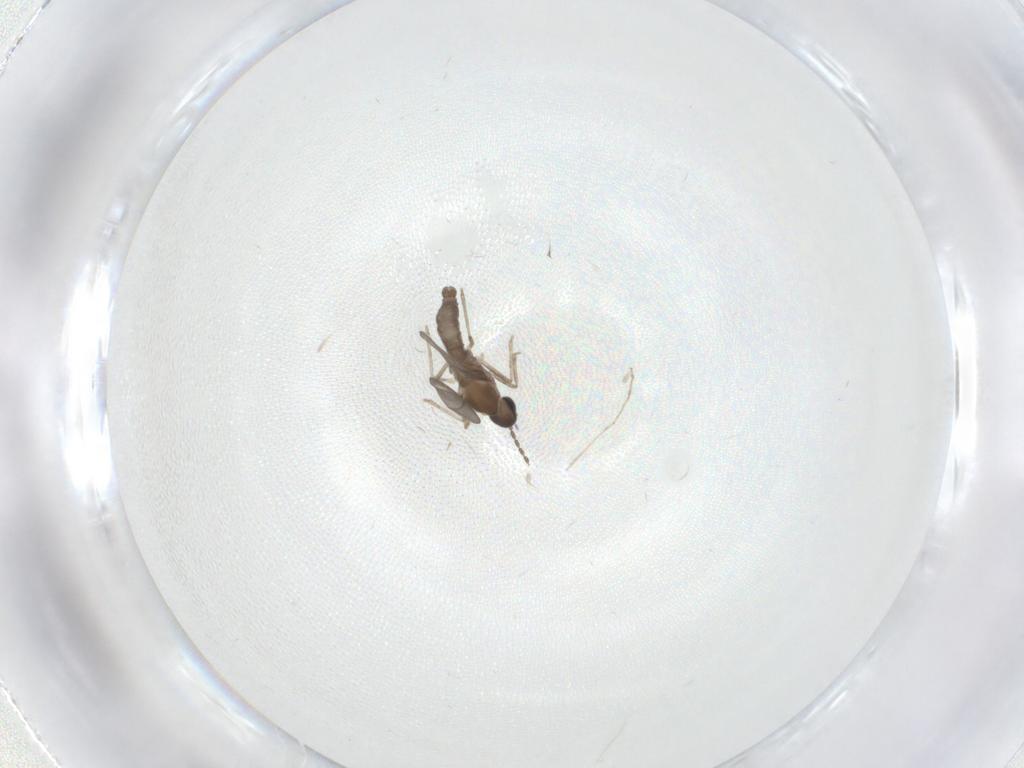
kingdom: Animalia
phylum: Arthropoda
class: Insecta
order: Diptera
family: Cecidomyiidae
